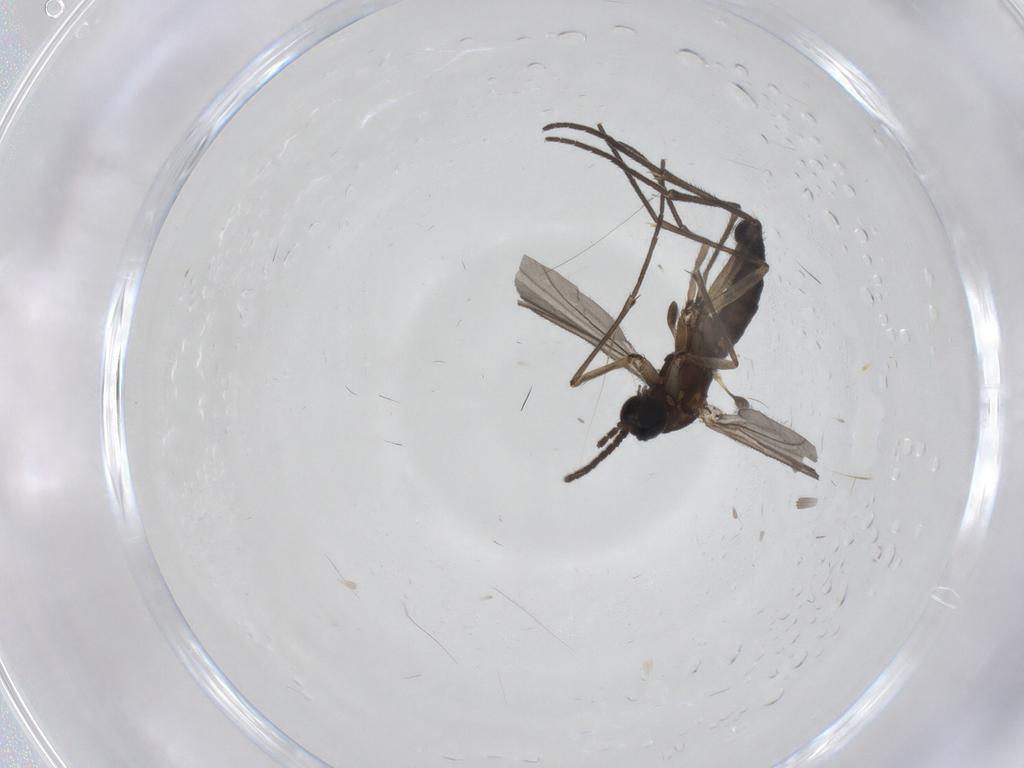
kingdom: Animalia
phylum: Arthropoda
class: Insecta
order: Diptera
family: Sciaridae
